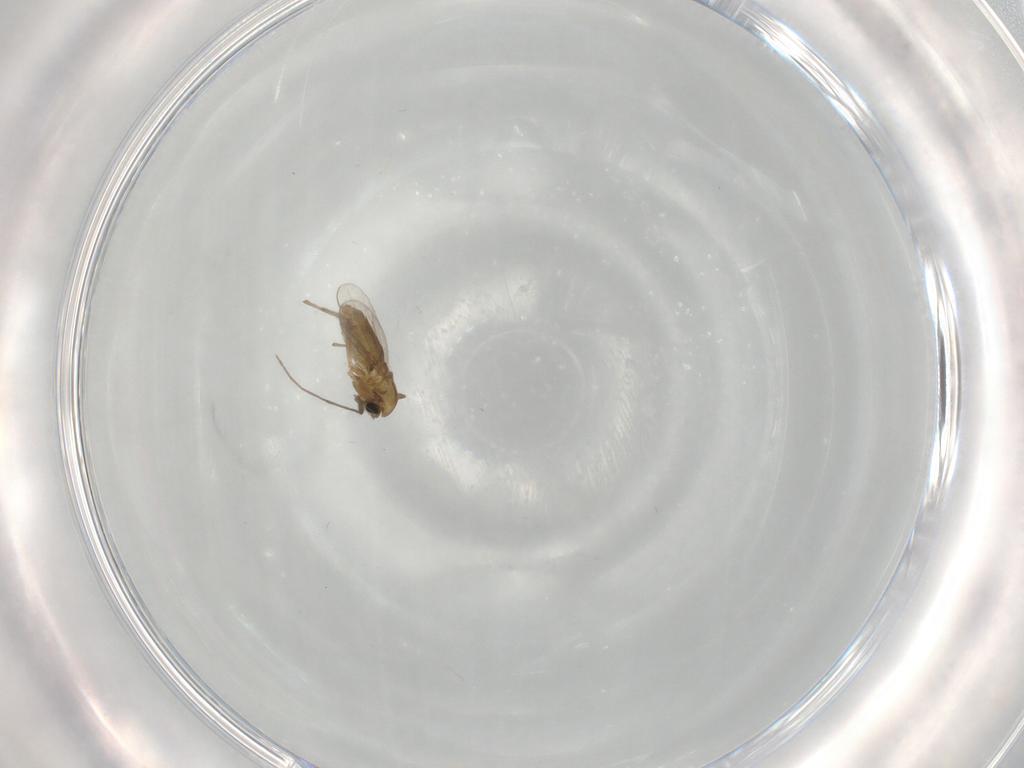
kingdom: Animalia
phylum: Arthropoda
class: Insecta
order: Diptera
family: Chironomidae
